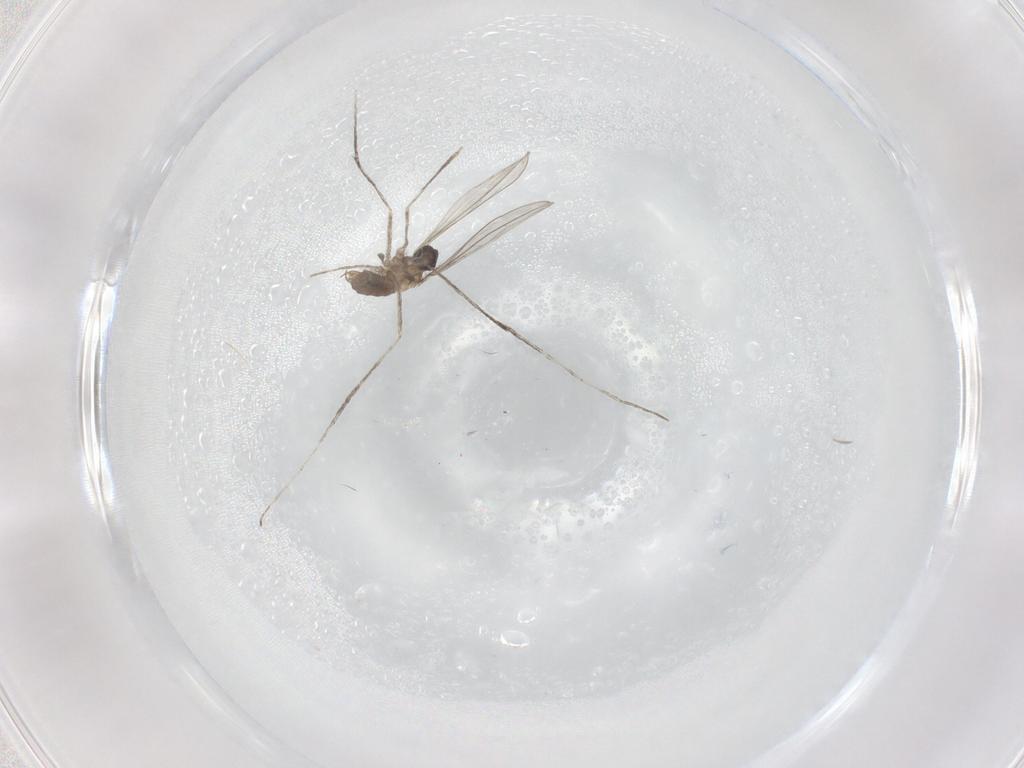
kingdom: Animalia
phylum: Arthropoda
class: Insecta
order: Diptera
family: Cecidomyiidae
